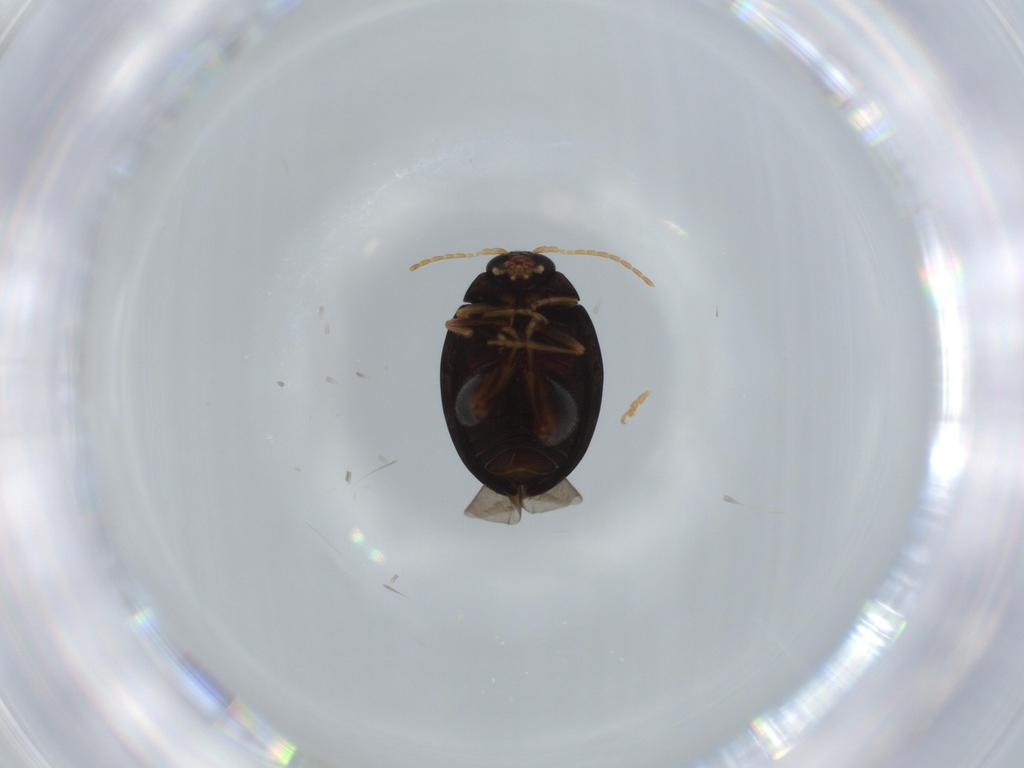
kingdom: Animalia
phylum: Arthropoda
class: Insecta
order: Coleoptera
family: Chrysomelidae
